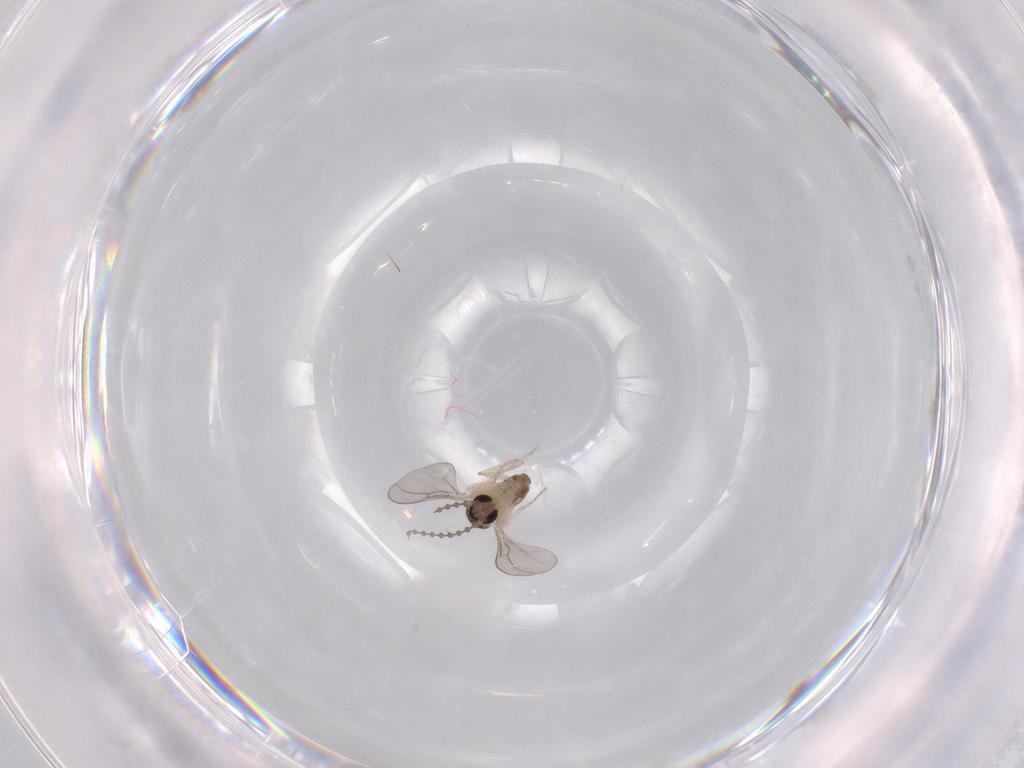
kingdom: Animalia
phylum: Arthropoda
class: Insecta
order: Diptera
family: Cecidomyiidae
